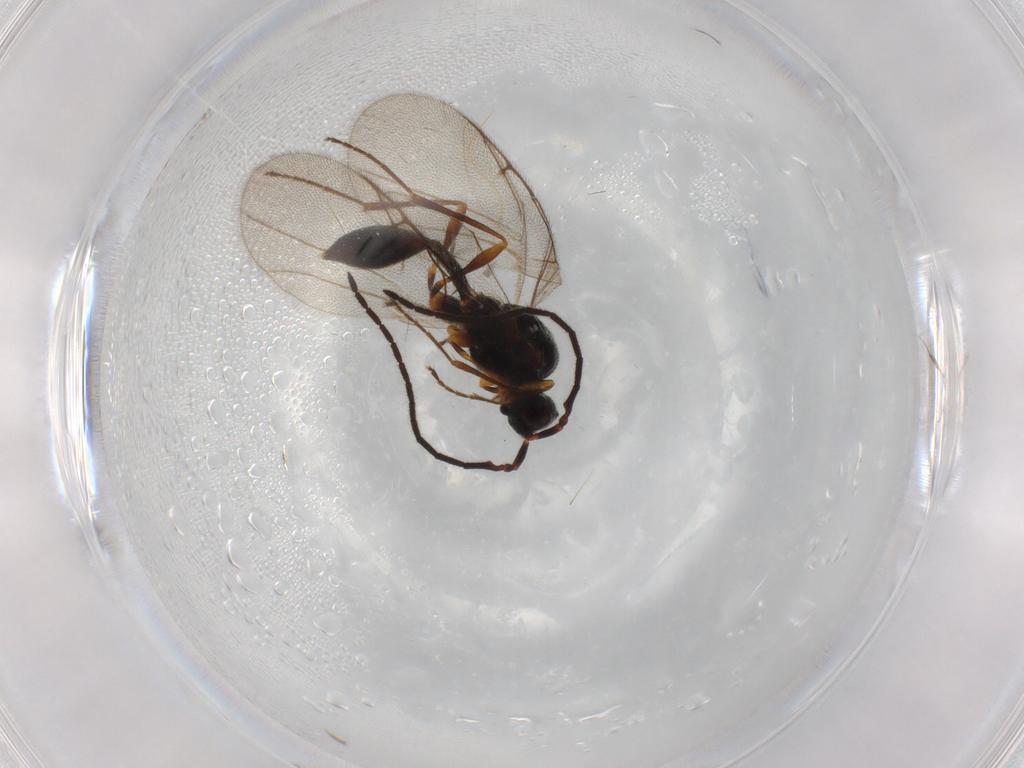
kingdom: Animalia
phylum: Arthropoda
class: Insecta
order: Hymenoptera
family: Diapriidae
